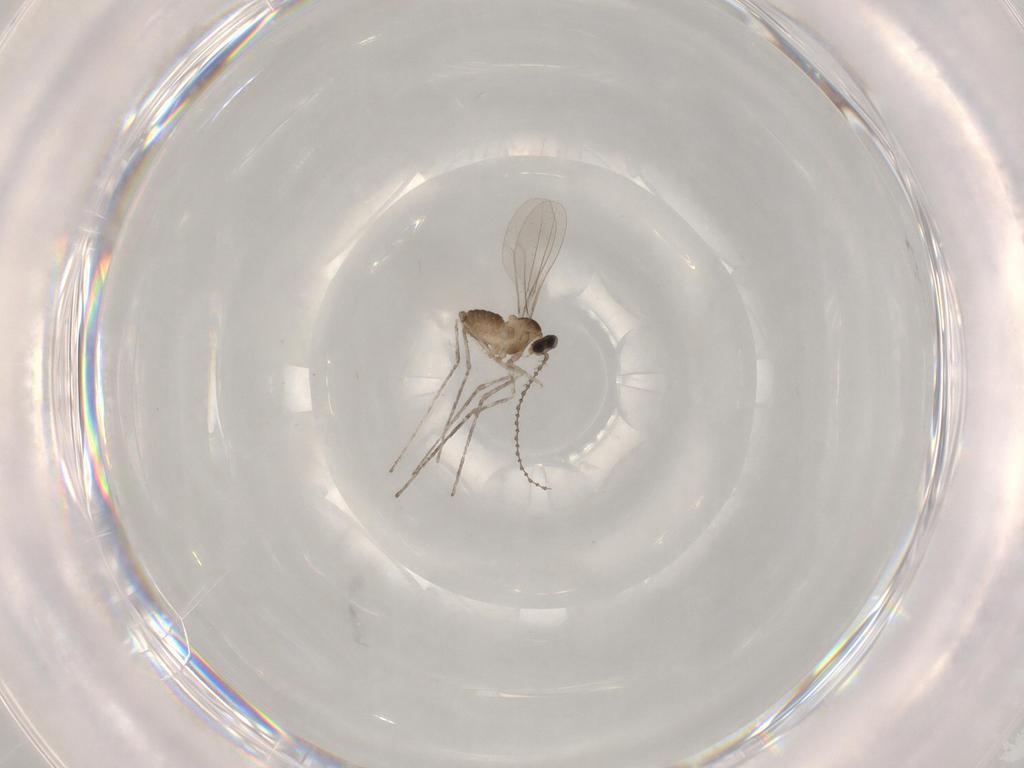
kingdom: Animalia
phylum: Arthropoda
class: Insecta
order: Diptera
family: Cecidomyiidae
